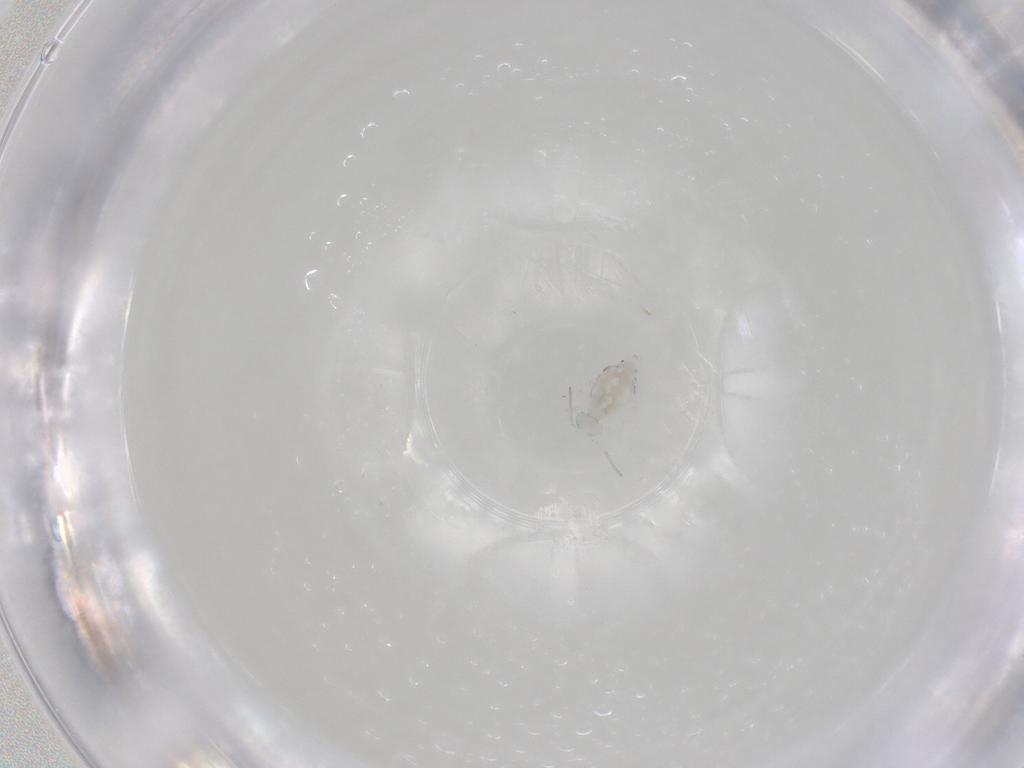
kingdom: Animalia
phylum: Arthropoda
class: Collembola
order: Symphypleona
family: Bourletiellidae
